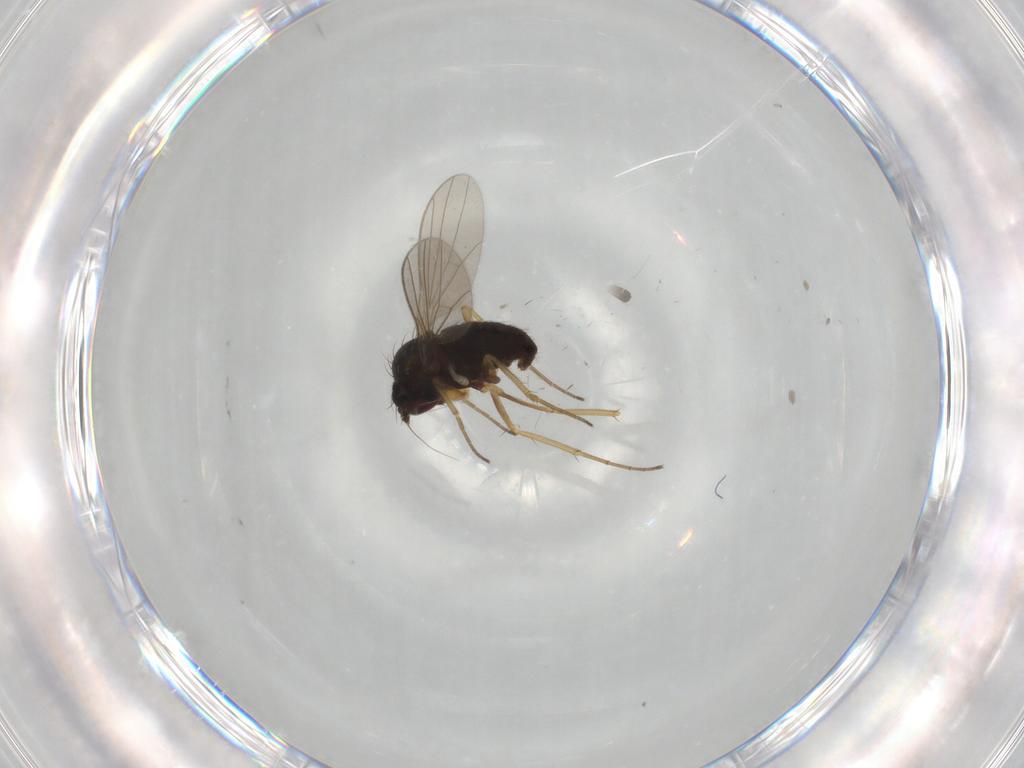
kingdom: Animalia
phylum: Arthropoda
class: Insecta
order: Diptera
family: Dolichopodidae
